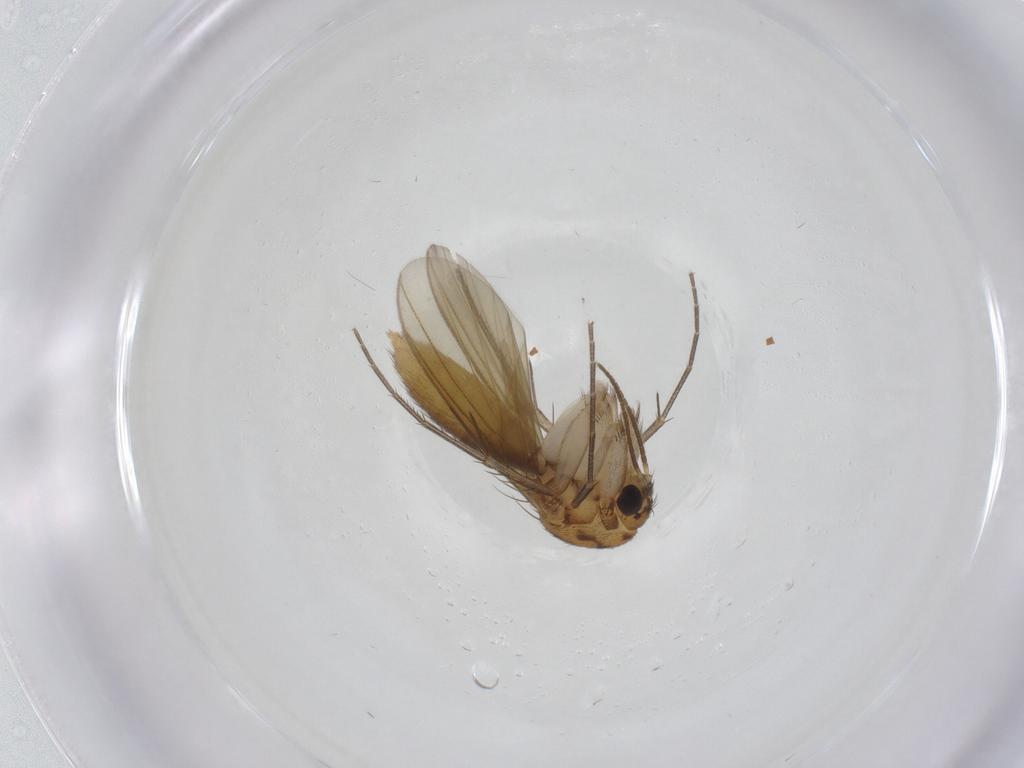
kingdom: Animalia
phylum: Arthropoda
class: Insecta
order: Diptera
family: Mycetophilidae
